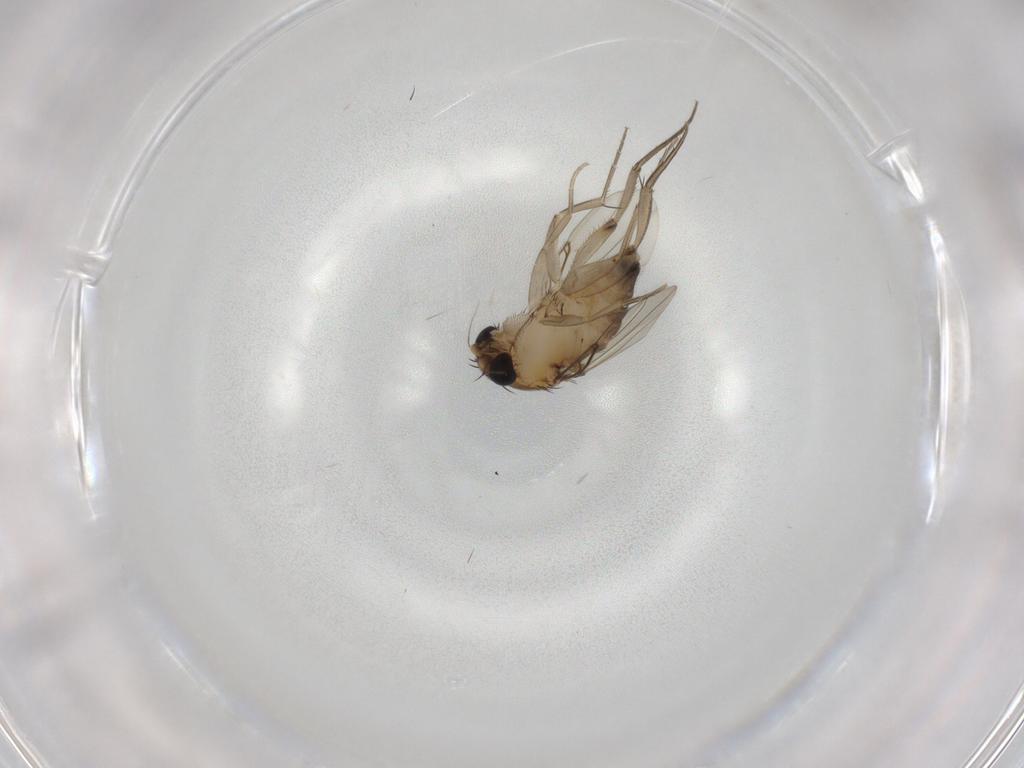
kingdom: Animalia
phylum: Arthropoda
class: Insecta
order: Diptera
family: Phoridae
